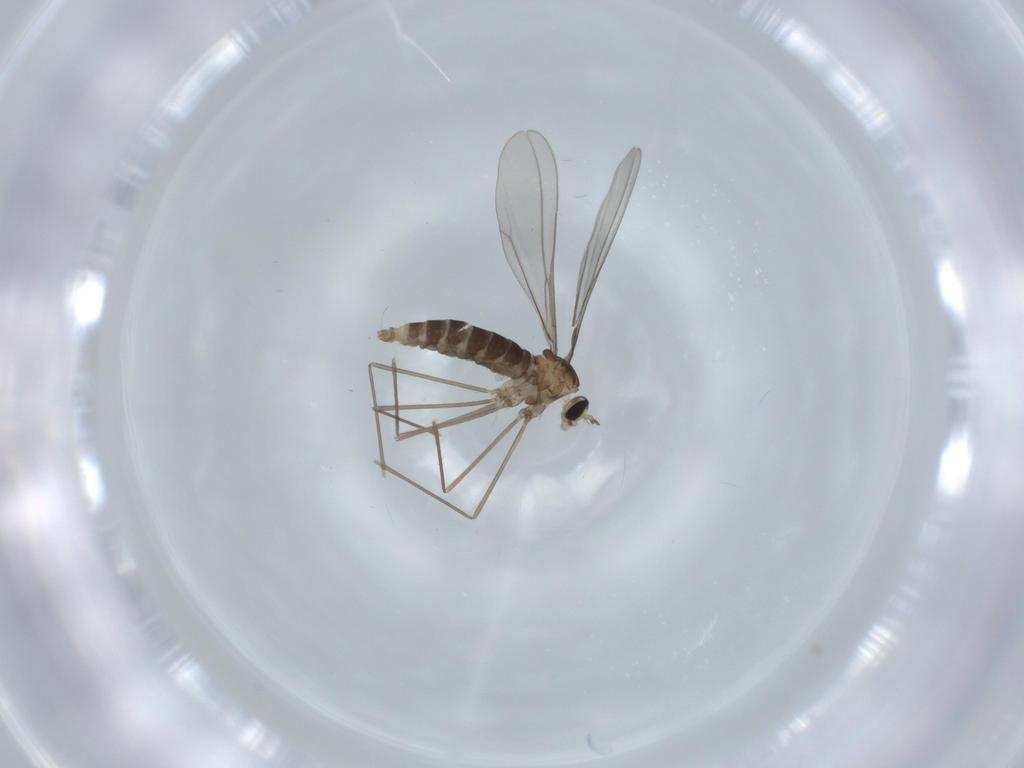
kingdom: Animalia
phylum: Arthropoda
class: Insecta
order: Diptera
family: Cecidomyiidae
